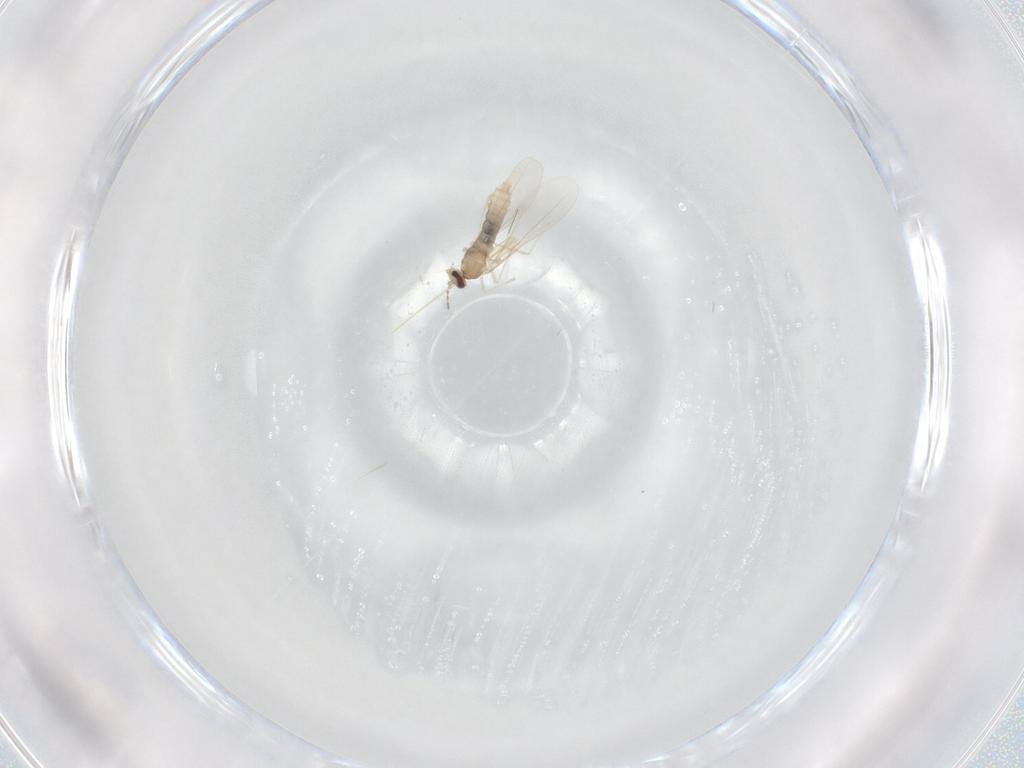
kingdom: Animalia
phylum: Arthropoda
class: Insecta
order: Diptera
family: Cecidomyiidae
